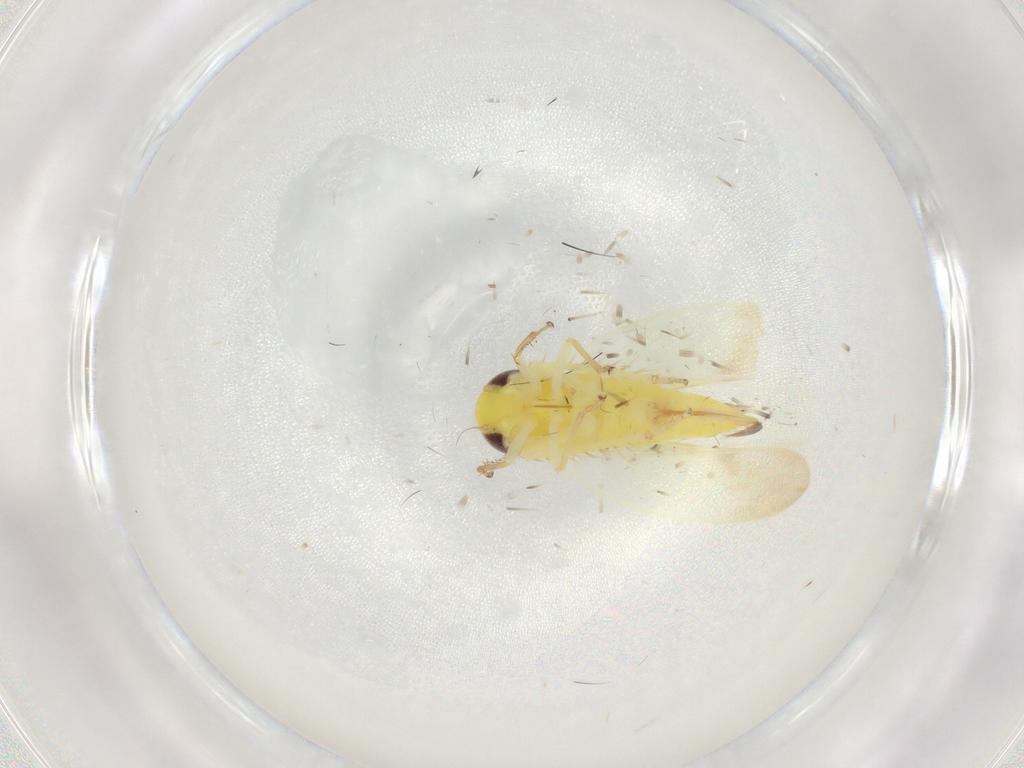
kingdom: Animalia
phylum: Arthropoda
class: Insecta
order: Hemiptera
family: Cicadellidae
